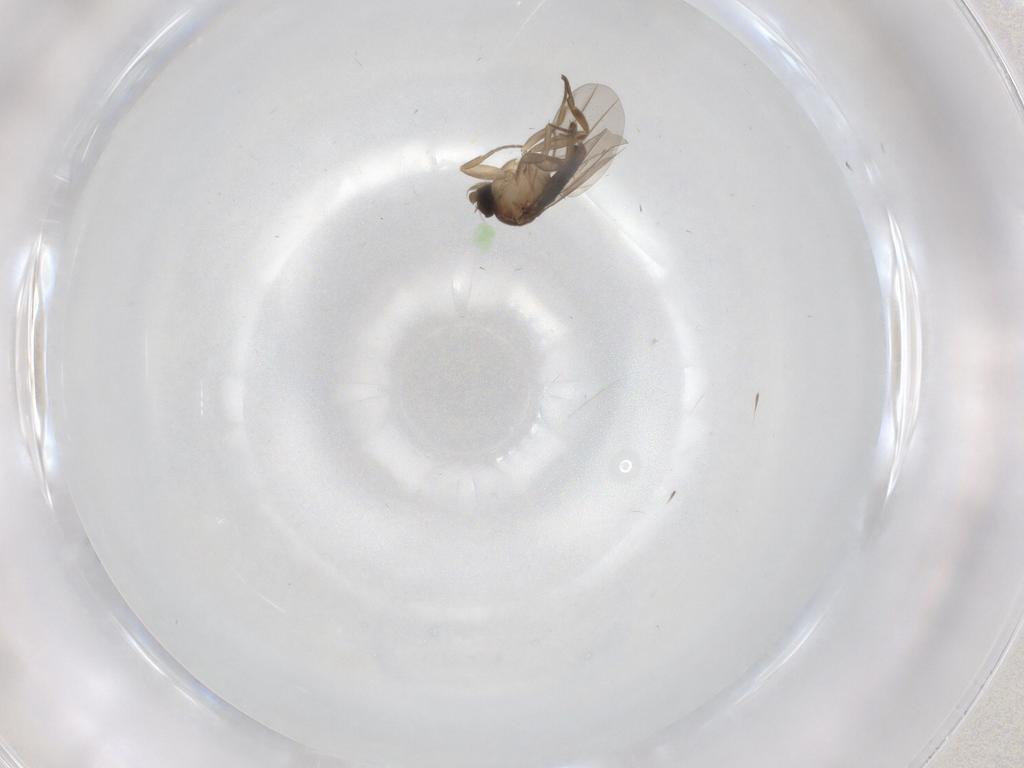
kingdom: Animalia
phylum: Arthropoda
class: Insecta
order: Diptera
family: Phoridae
